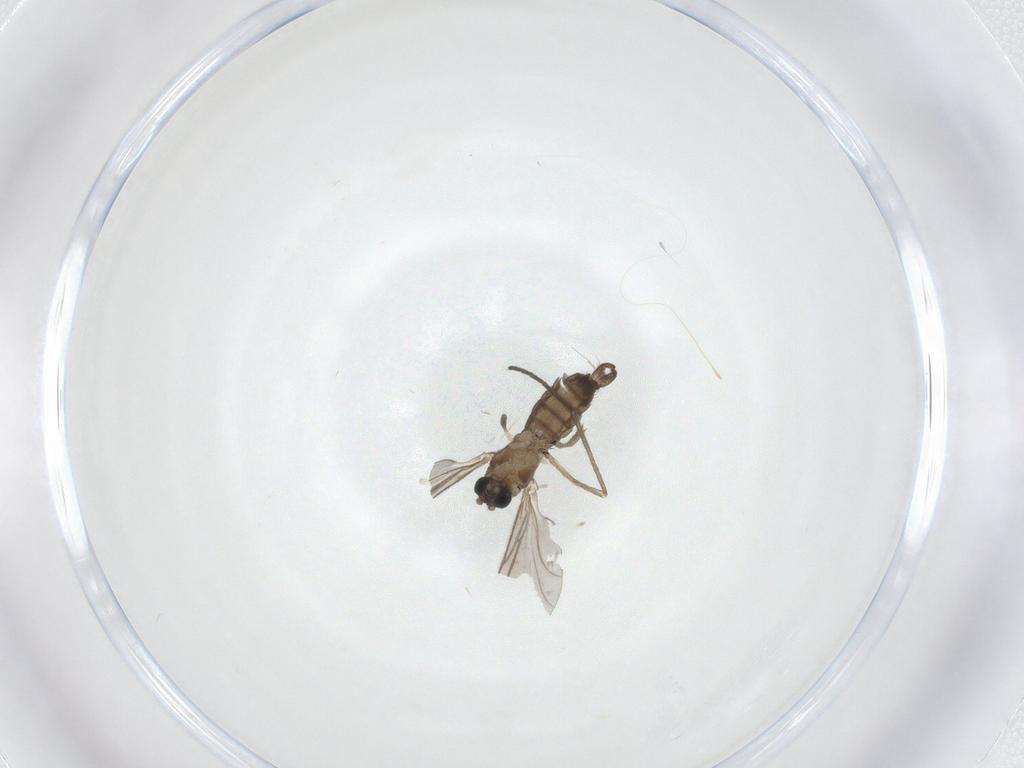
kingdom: Animalia
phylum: Arthropoda
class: Insecta
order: Diptera
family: Sciaridae
